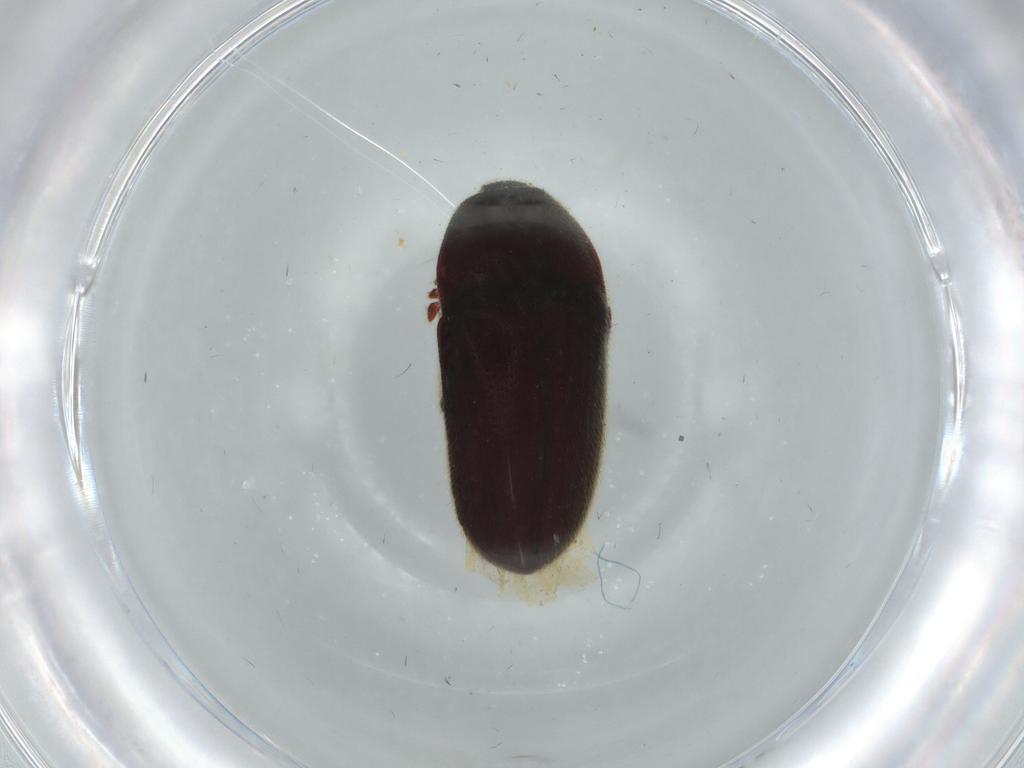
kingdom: Animalia
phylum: Arthropoda
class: Insecta
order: Coleoptera
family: Throscidae
